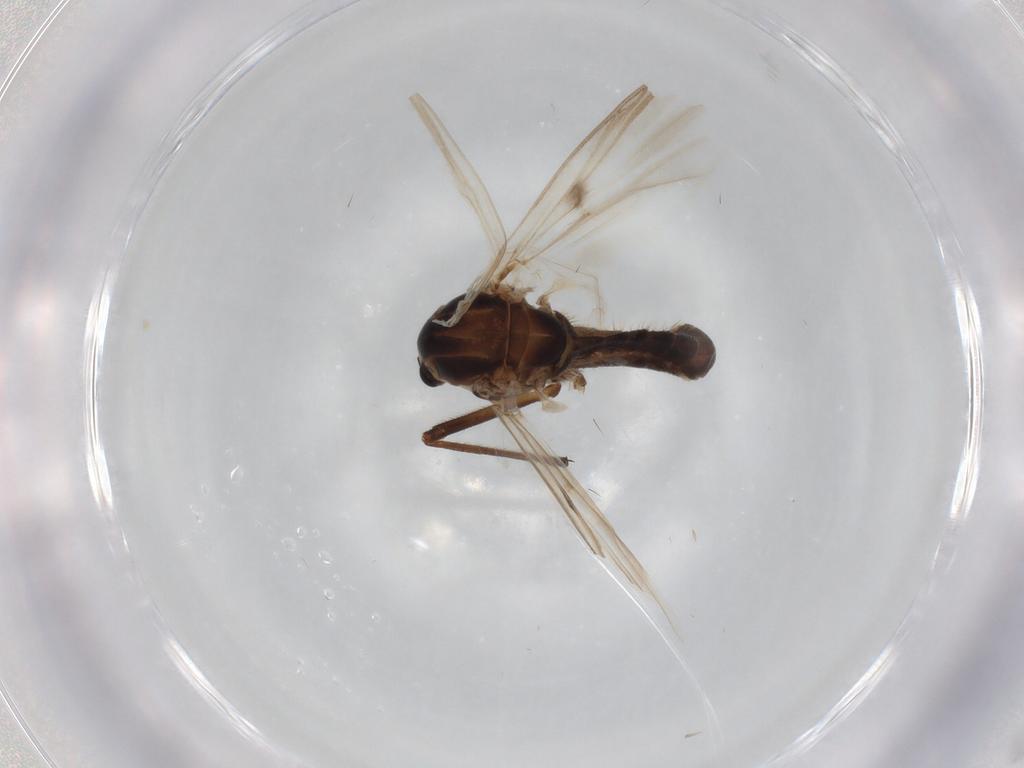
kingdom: Animalia
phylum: Arthropoda
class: Insecta
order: Diptera
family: Chironomidae
